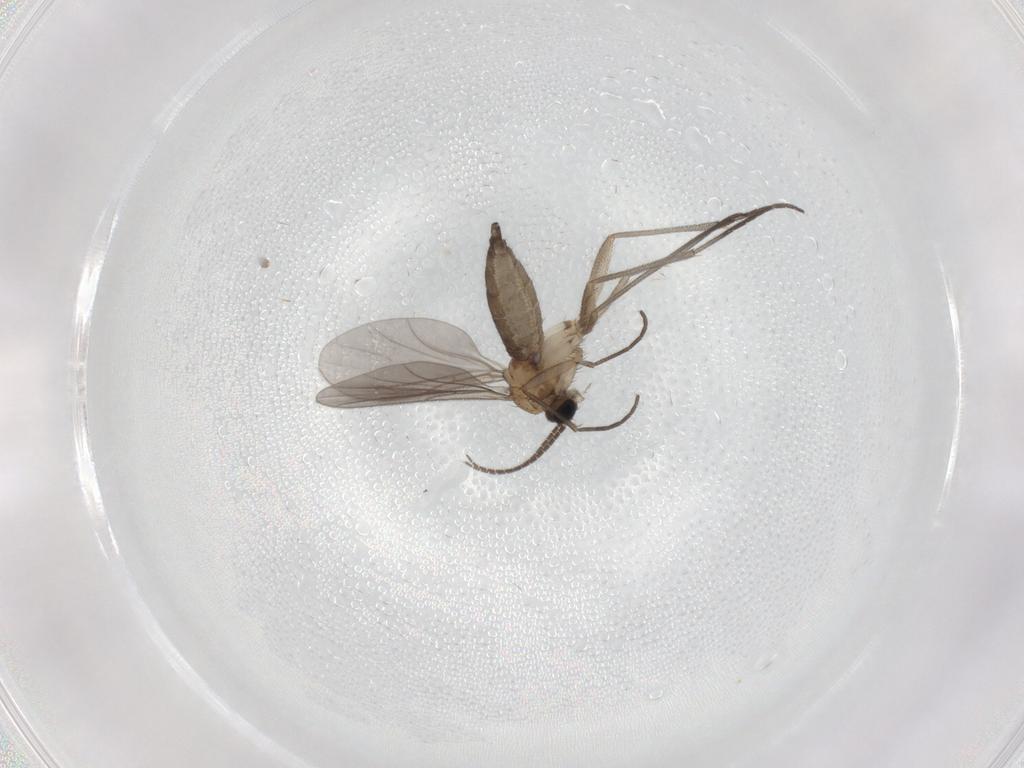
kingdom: Animalia
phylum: Arthropoda
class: Insecta
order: Diptera
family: Sciaridae
